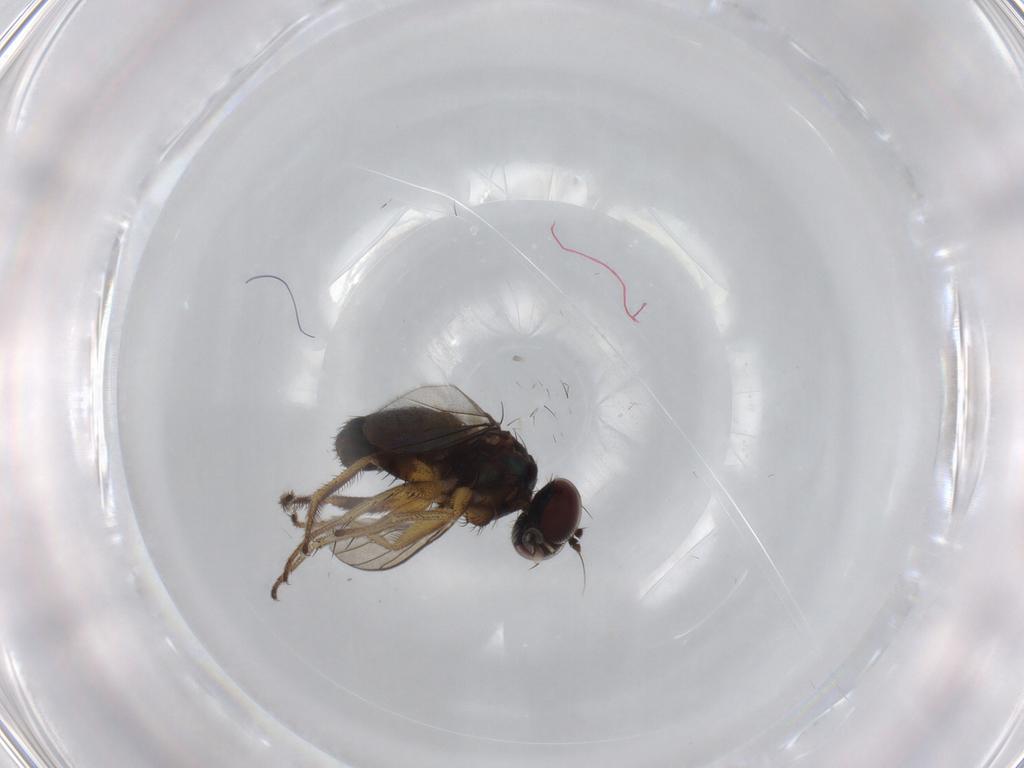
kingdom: Animalia
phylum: Arthropoda
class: Insecta
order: Diptera
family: Dolichopodidae
